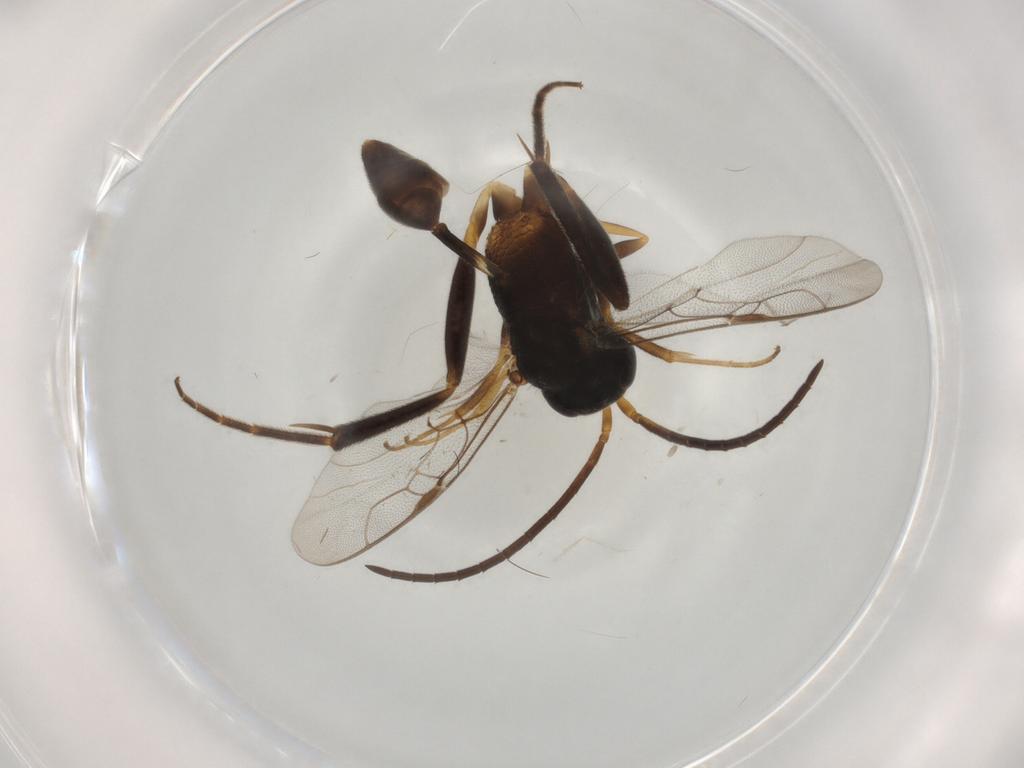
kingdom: Animalia
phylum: Arthropoda
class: Insecta
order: Hymenoptera
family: Evaniidae
